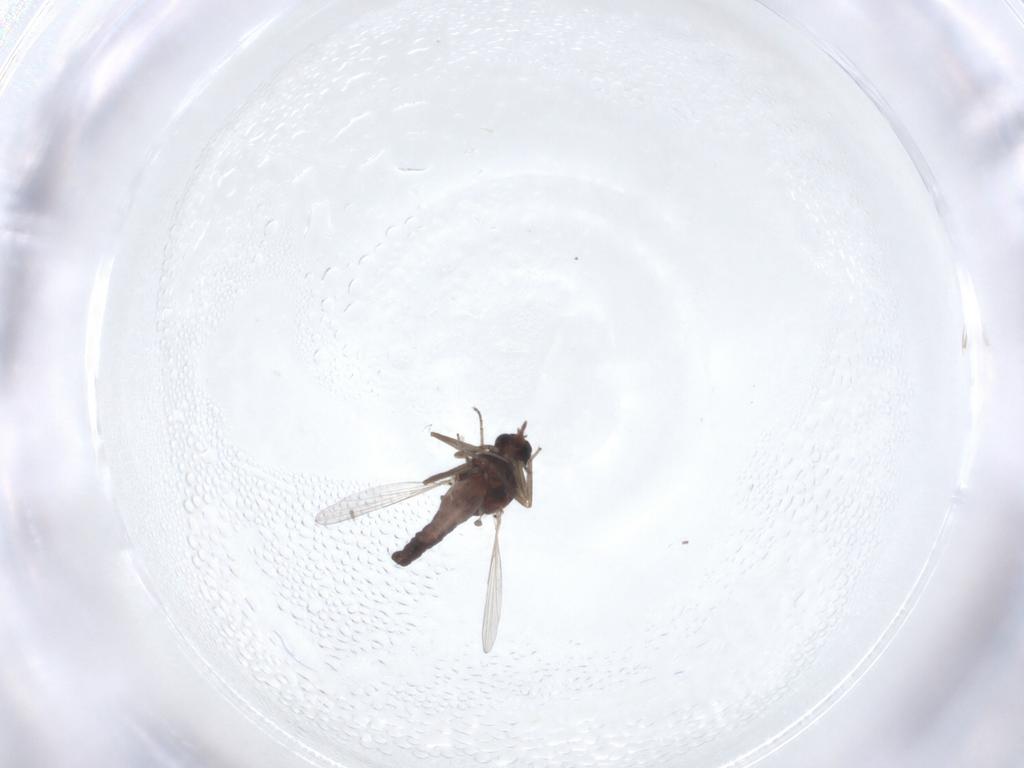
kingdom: Animalia
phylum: Arthropoda
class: Insecta
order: Diptera
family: Ceratopogonidae
